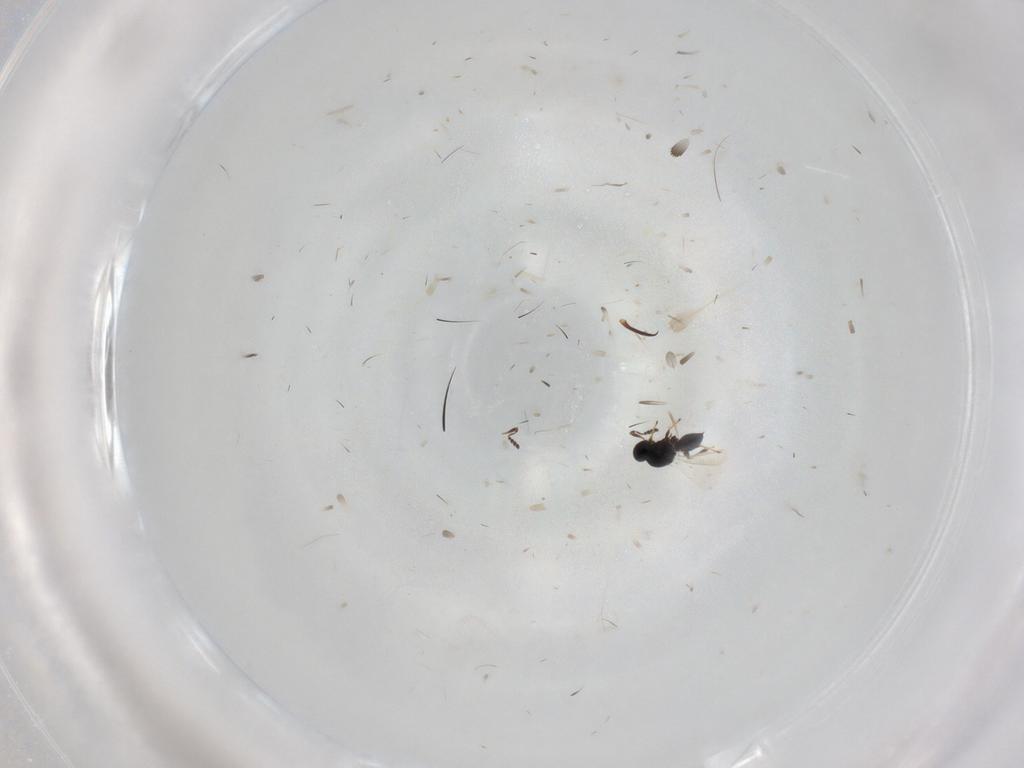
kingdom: Animalia
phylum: Arthropoda
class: Insecta
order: Hymenoptera
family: Platygastridae
